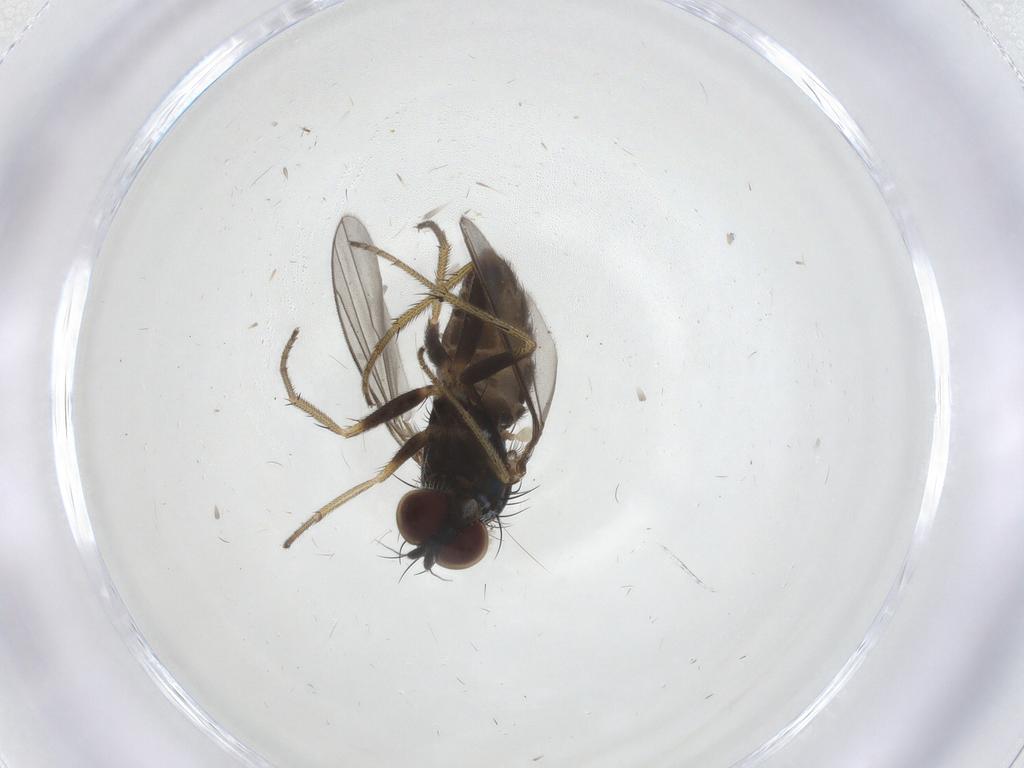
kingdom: Animalia
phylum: Arthropoda
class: Insecta
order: Diptera
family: Dolichopodidae
